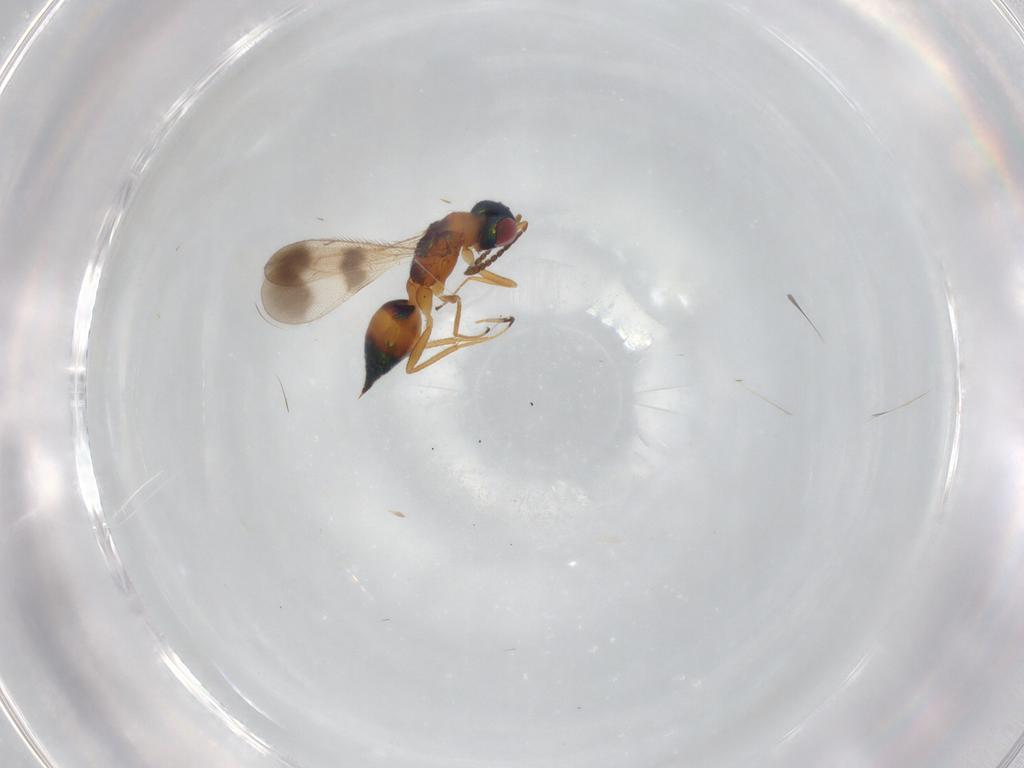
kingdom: Animalia
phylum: Arthropoda
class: Insecta
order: Hymenoptera
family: Encyrtidae
